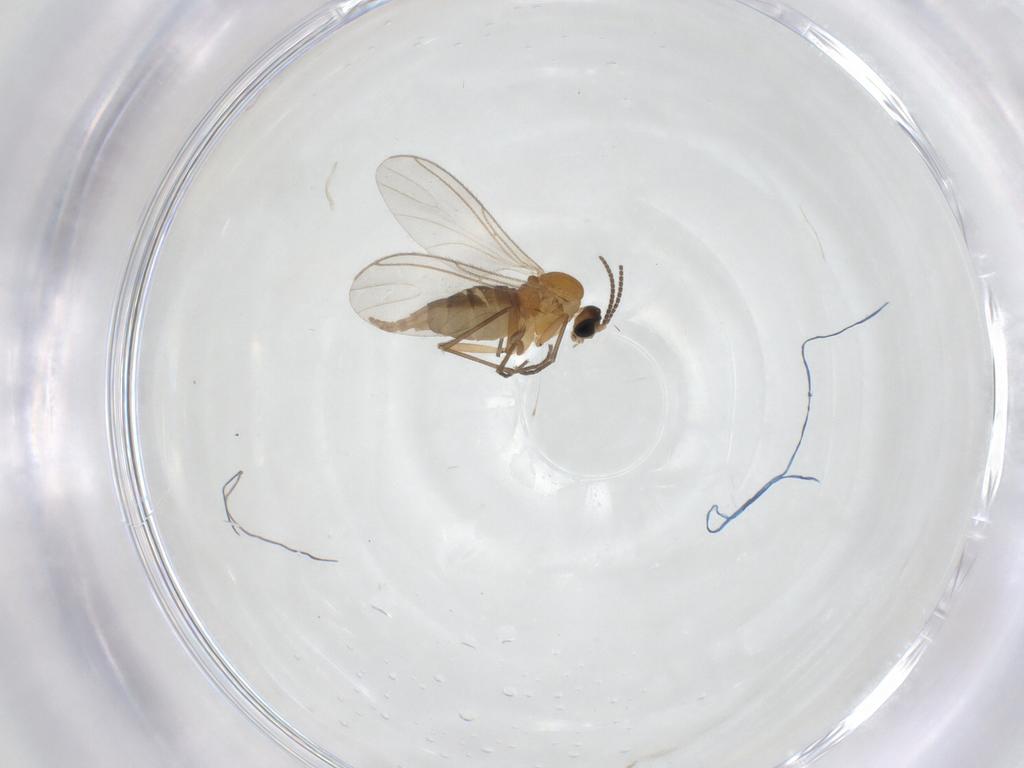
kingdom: Animalia
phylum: Arthropoda
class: Insecta
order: Diptera
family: Sciaridae
